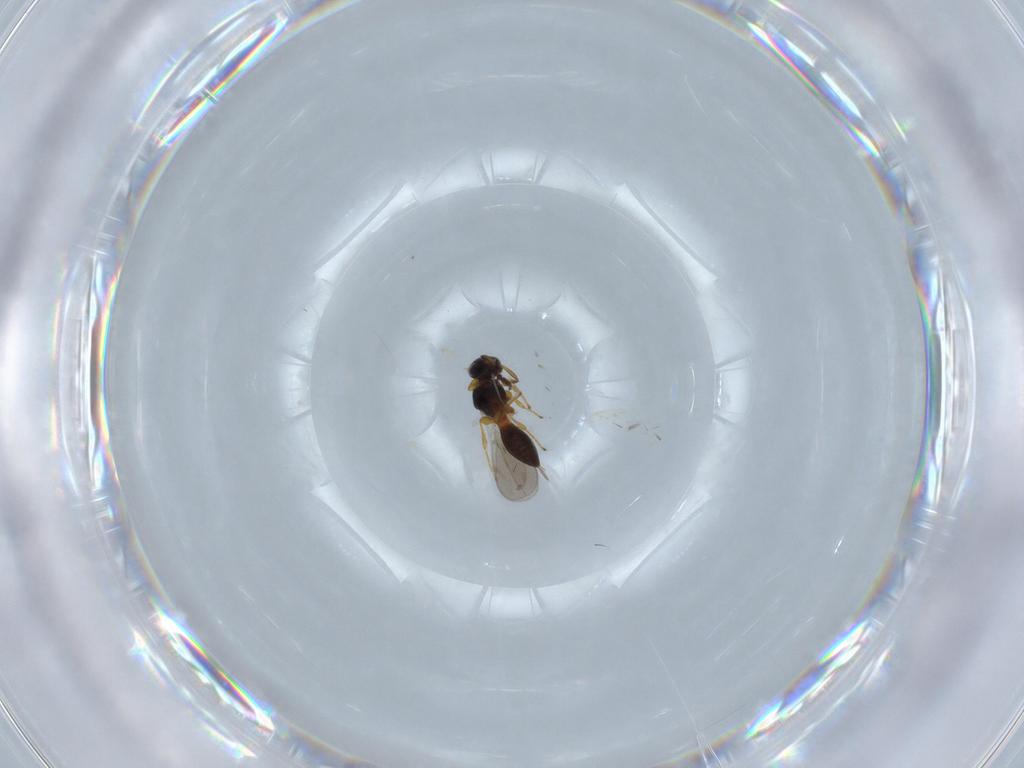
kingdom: Animalia
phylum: Arthropoda
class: Insecta
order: Hymenoptera
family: Platygastridae
